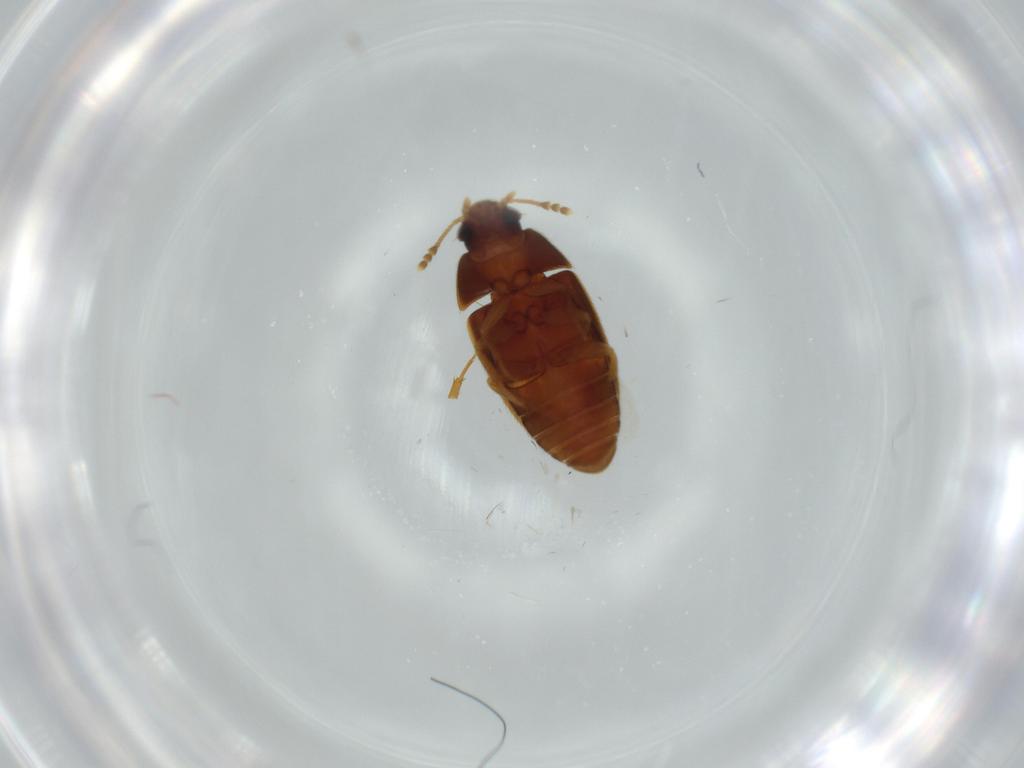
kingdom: Animalia
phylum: Arthropoda
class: Insecta
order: Coleoptera
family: Mycetophagidae
